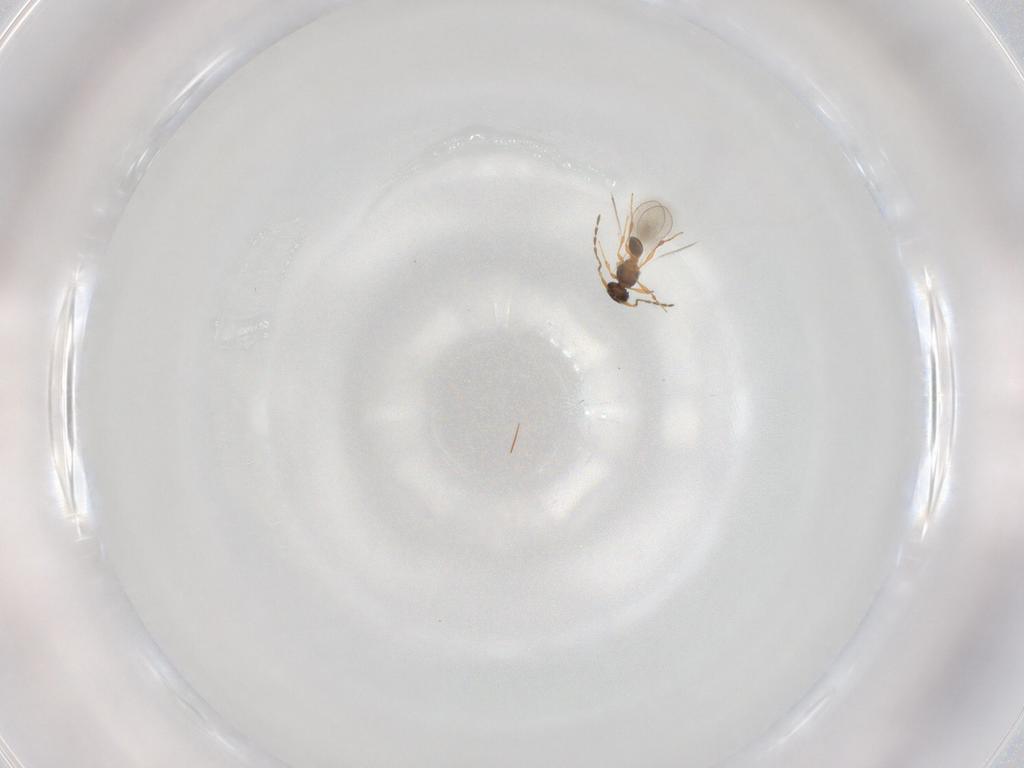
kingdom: Animalia
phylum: Arthropoda
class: Insecta
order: Hymenoptera
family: Platygastridae
